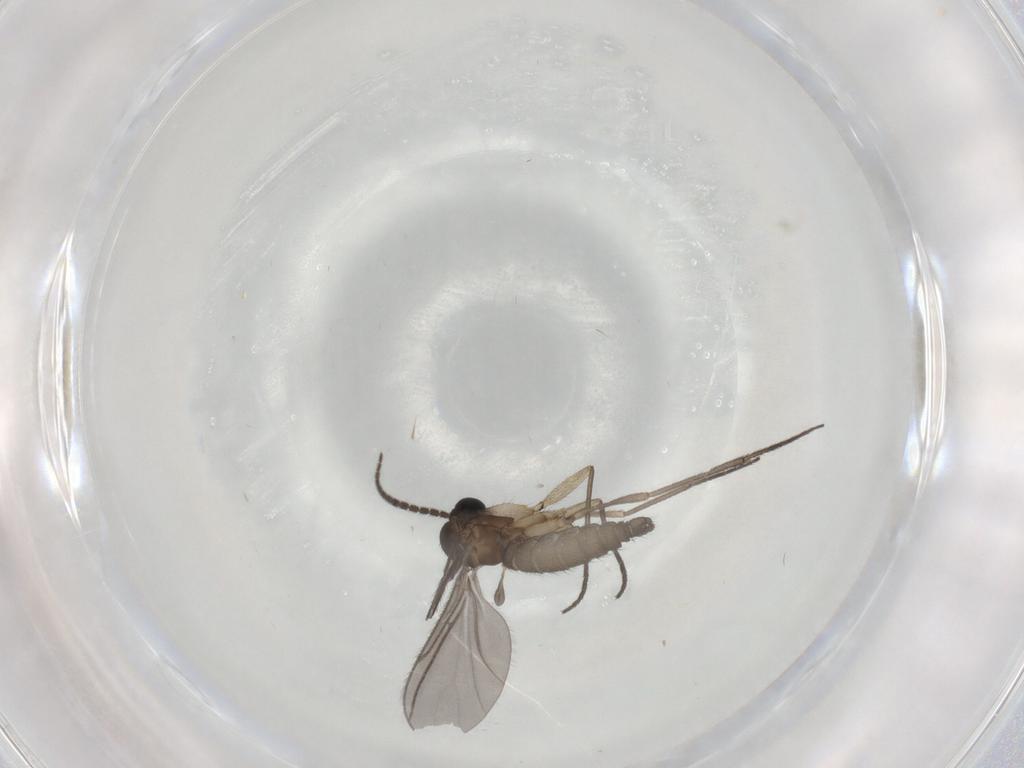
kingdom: Animalia
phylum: Arthropoda
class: Insecta
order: Diptera
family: Sciaridae
